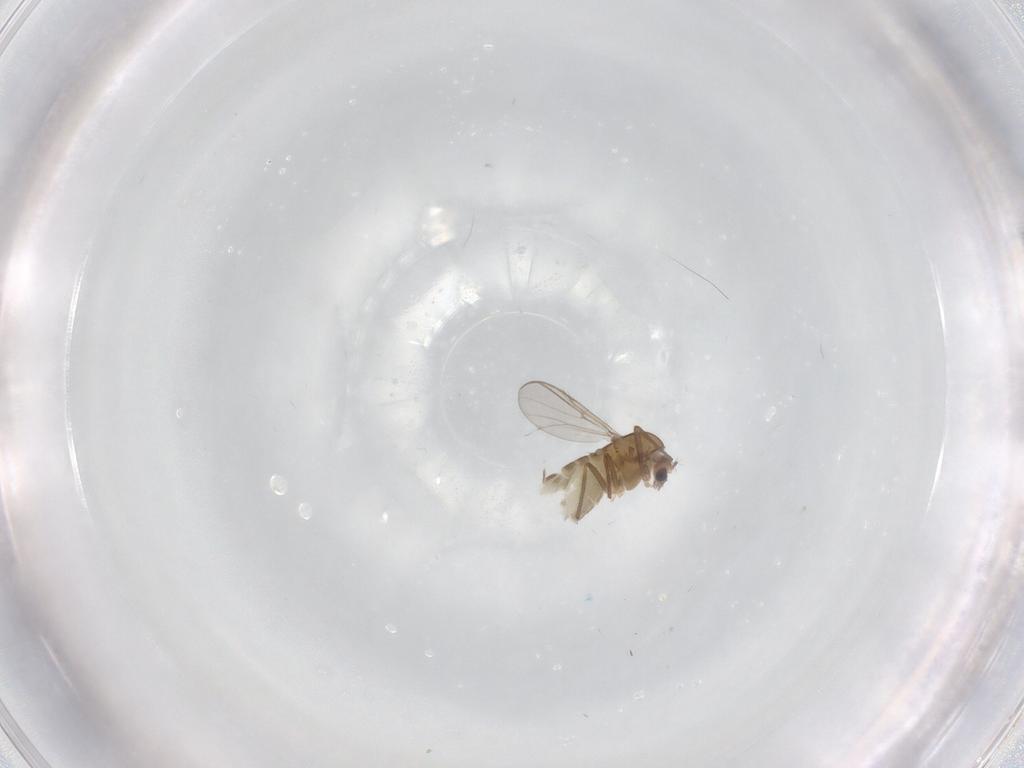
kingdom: Animalia
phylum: Arthropoda
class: Insecta
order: Diptera
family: Chironomidae
